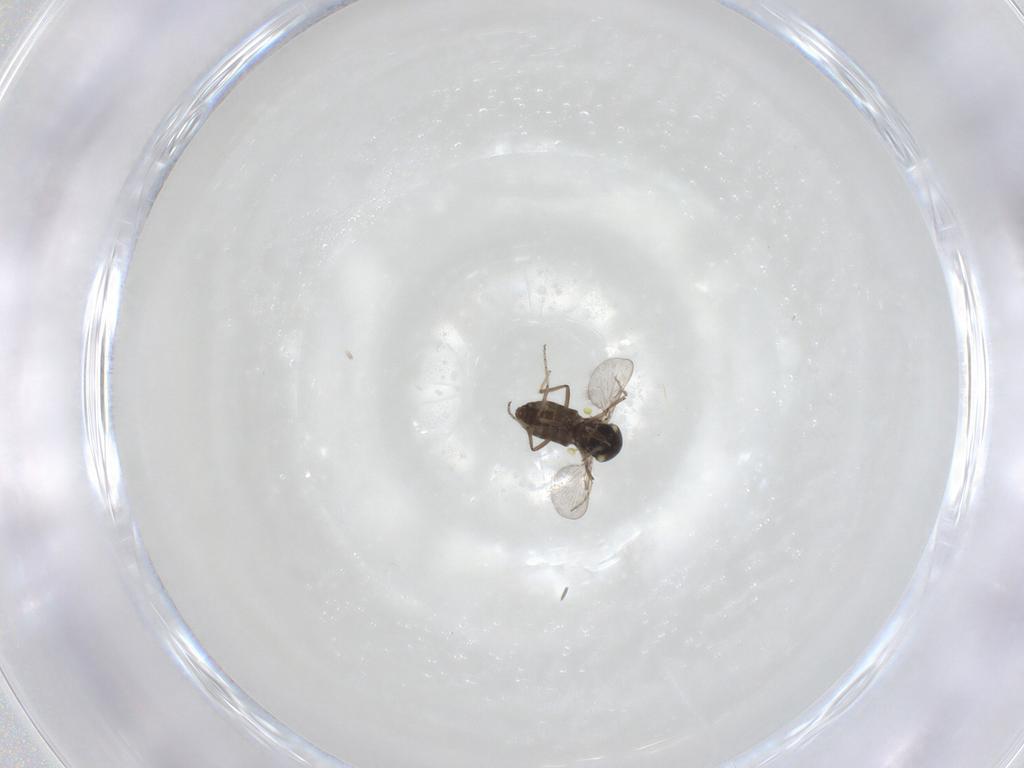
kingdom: Animalia
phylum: Arthropoda
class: Insecta
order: Diptera
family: Ceratopogonidae
